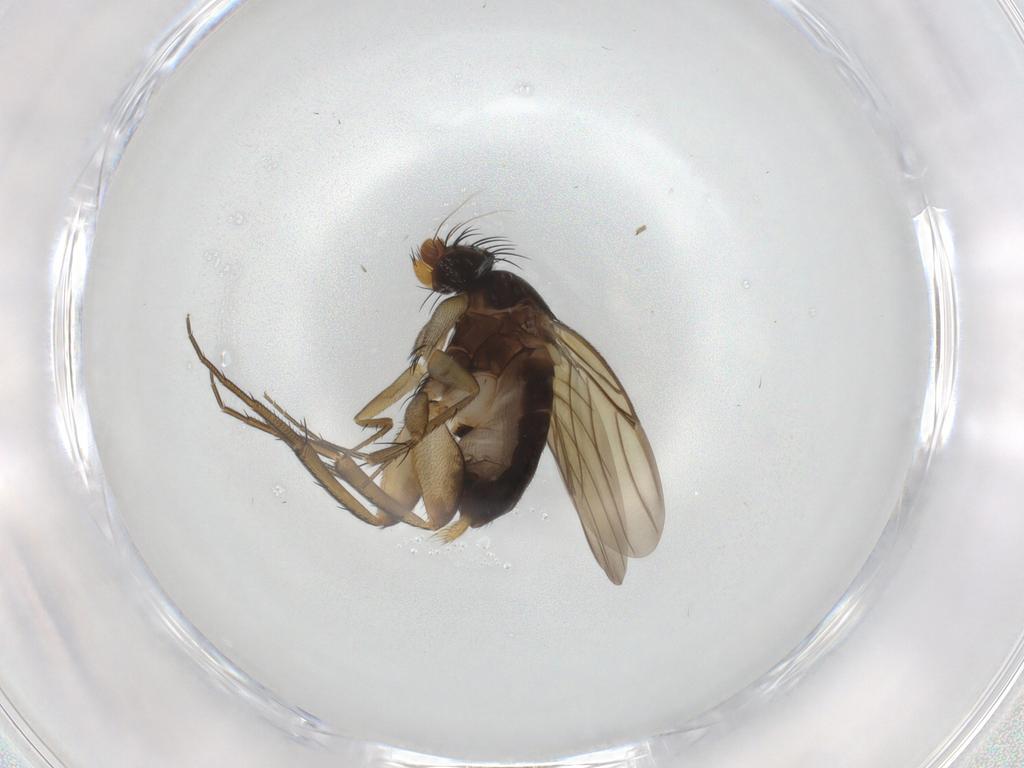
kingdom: Animalia
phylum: Arthropoda
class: Insecta
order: Diptera
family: Phoridae
